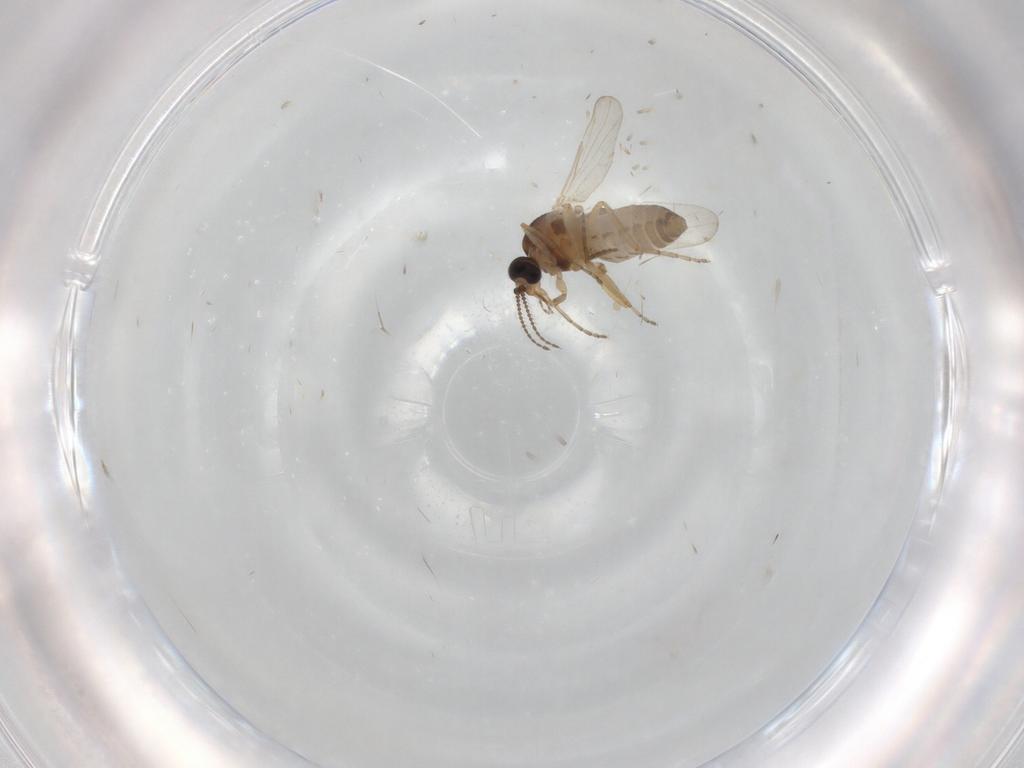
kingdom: Animalia
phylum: Arthropoda
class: Insecta
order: Diptera
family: Ceratopogonidae
